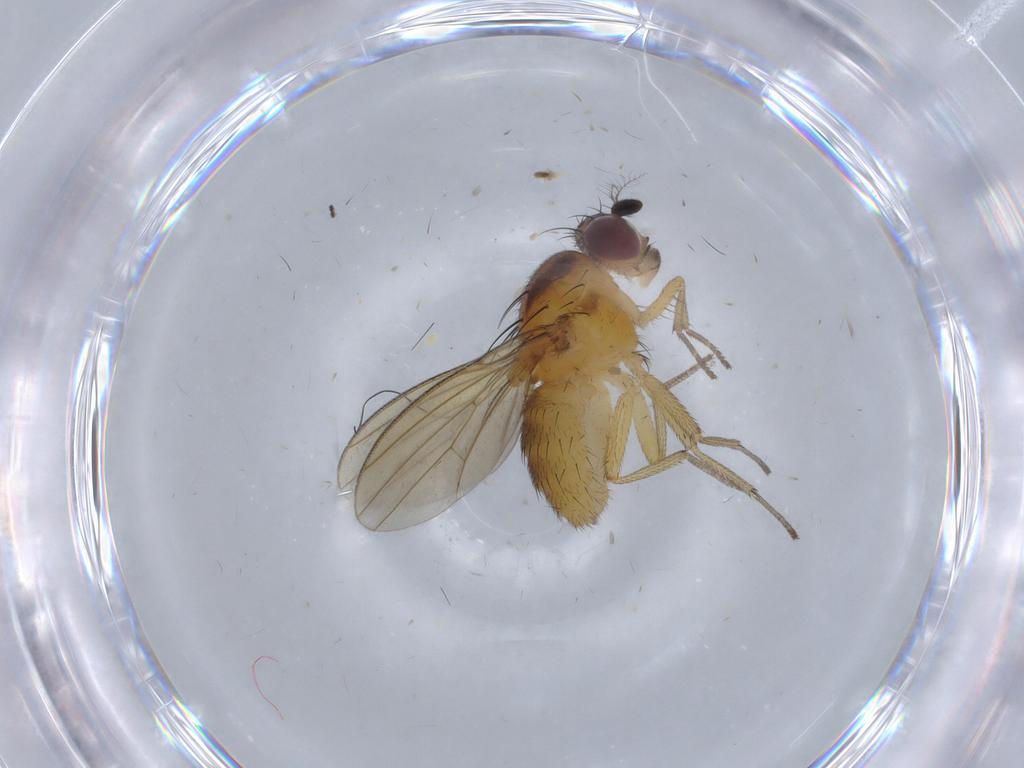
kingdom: Animalia
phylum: Arthropoda
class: Insecta
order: Diptera
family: Sciaridae
